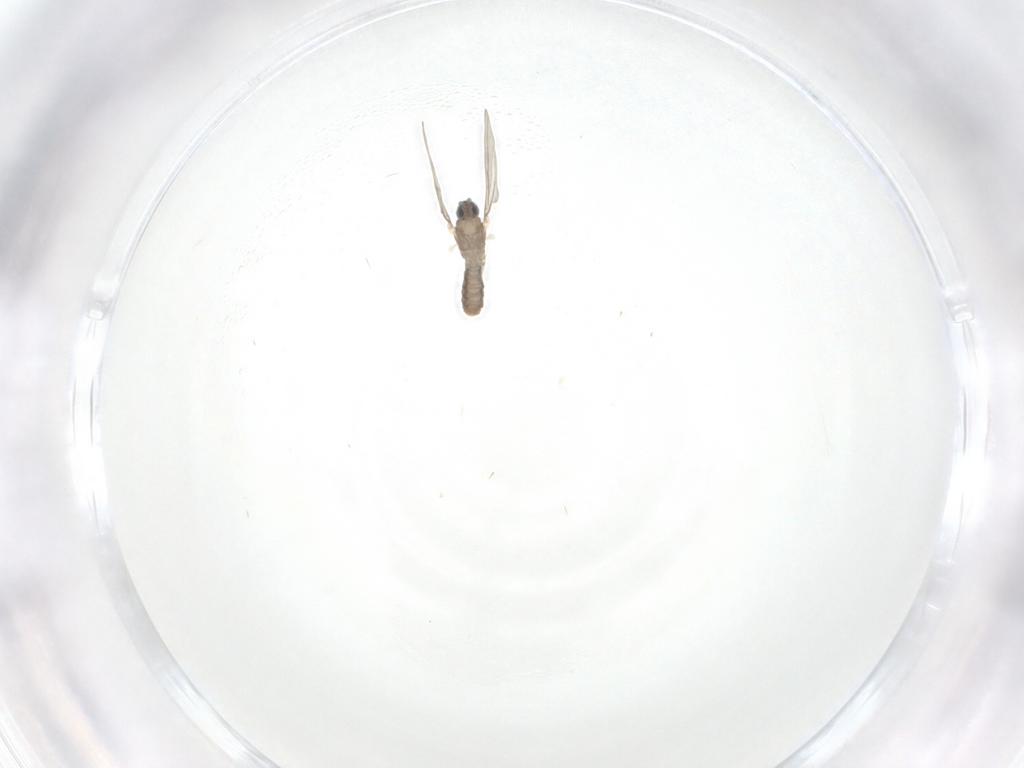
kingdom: Animalia
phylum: Arthropoda
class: Insecta
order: Diptera
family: Cecidomyiidae
